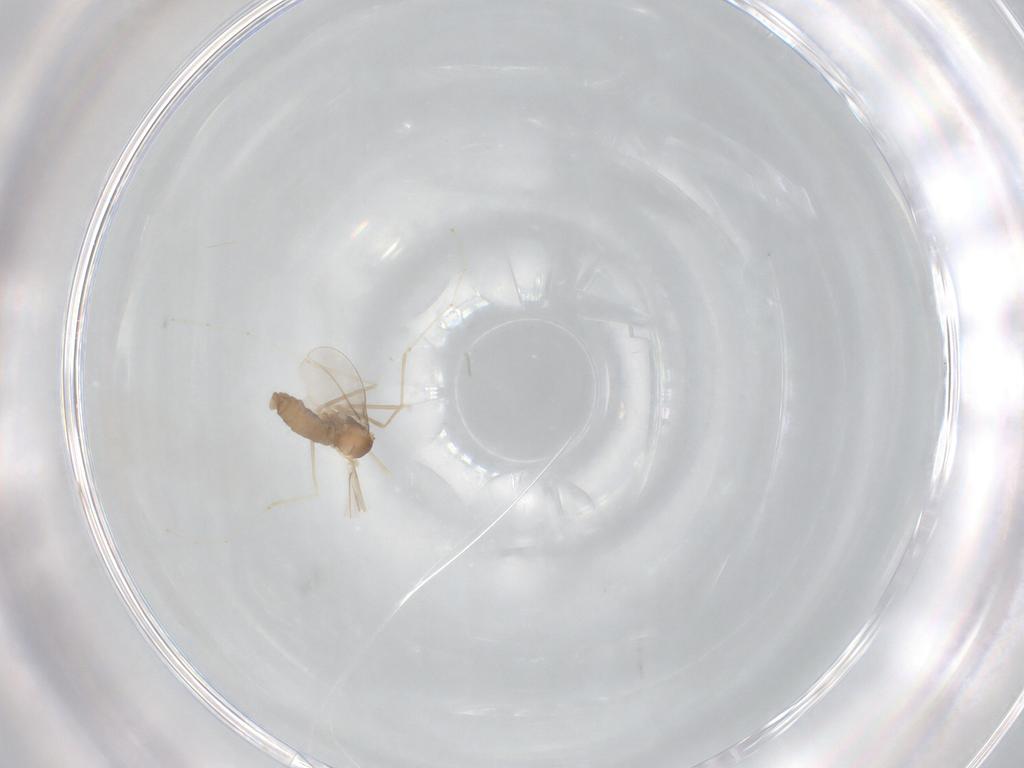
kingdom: Animalia
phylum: Arthropoda
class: Insecta
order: Diptera
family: Cecidomyiidae
